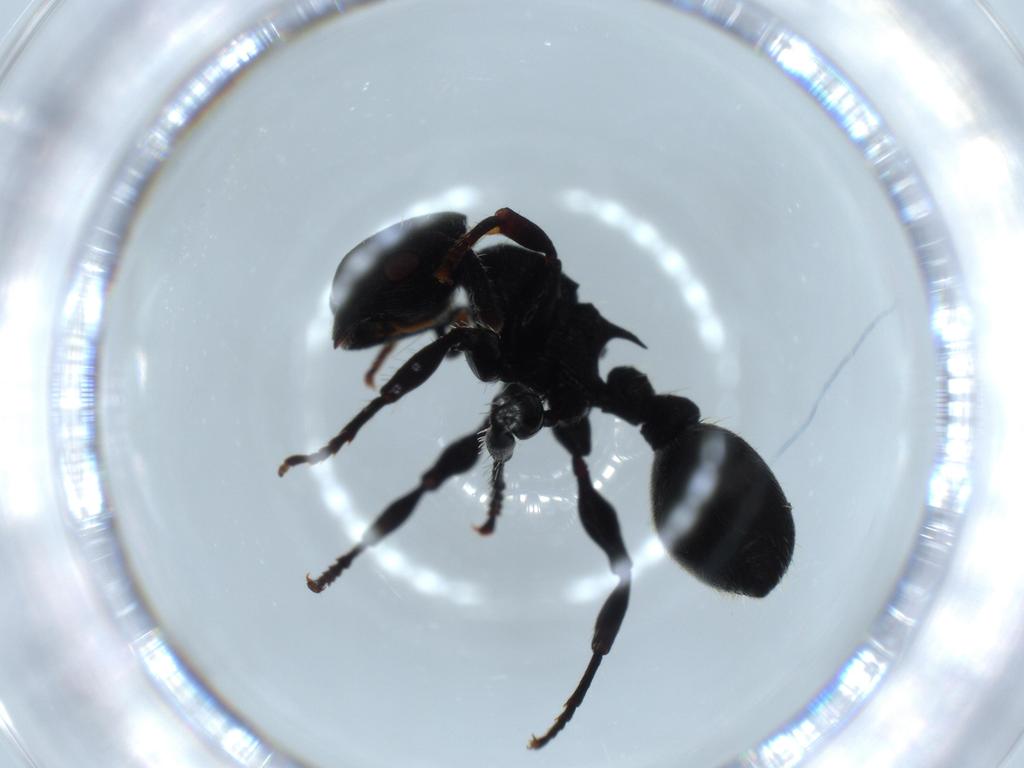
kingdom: Animalia
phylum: Arthropoda
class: Insecta
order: Hymenoptera
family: Formicidae
